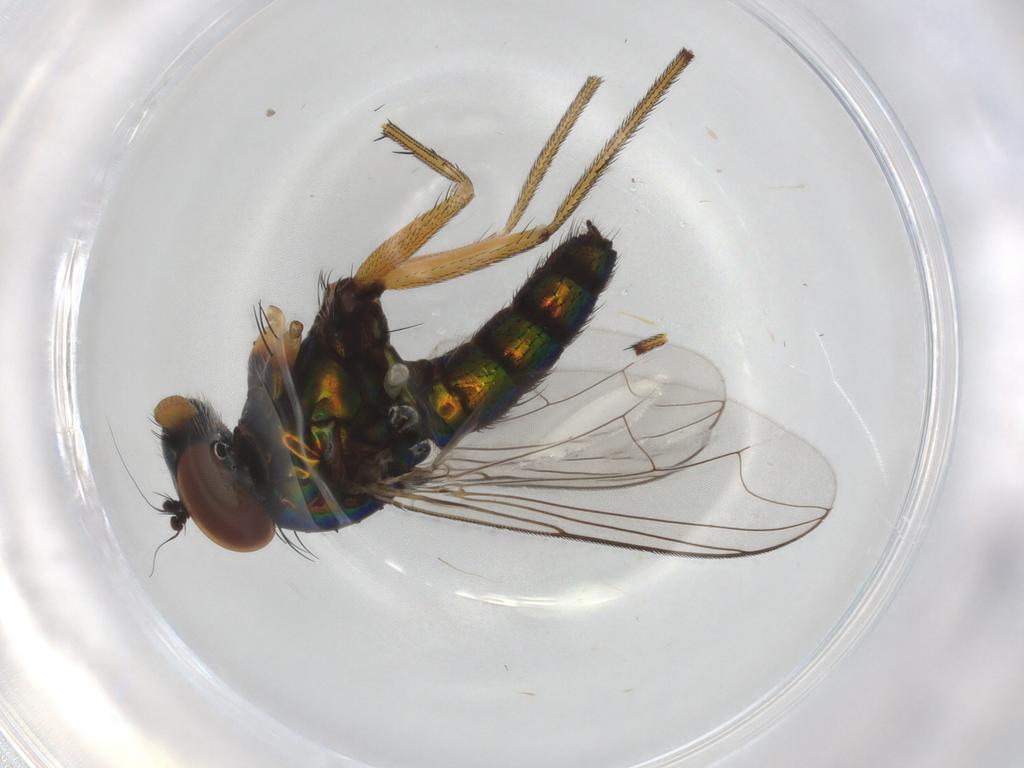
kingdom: Animalia
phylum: Arthropoda
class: Insecta
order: Diptera
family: Dolichopodidae
